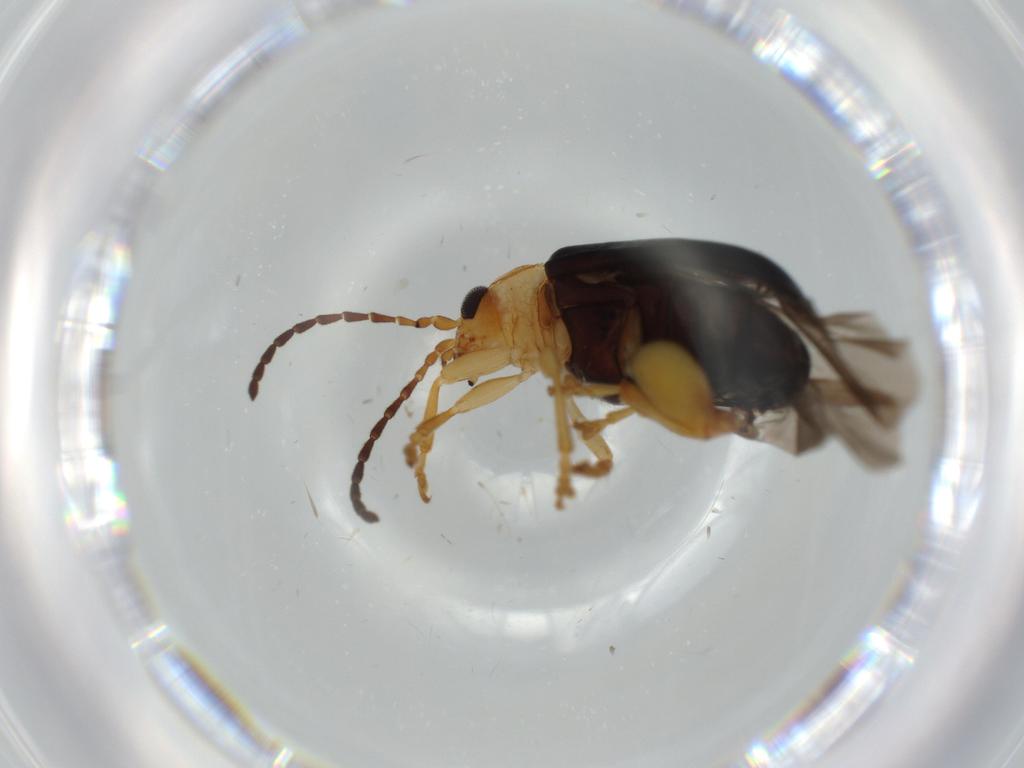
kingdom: Animalia
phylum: Arthropoda
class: Insecta
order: Coleoptera
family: Chrysomelidae
